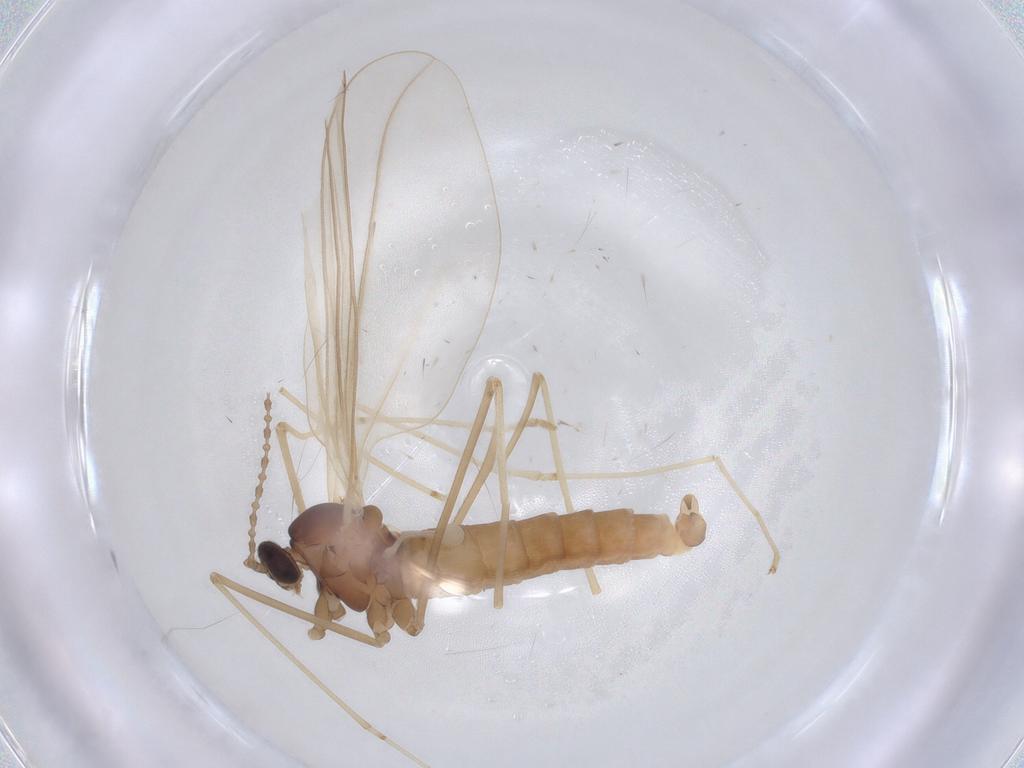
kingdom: Animalia
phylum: Arthropoda
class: Insecta
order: Diptera
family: Cecidomyiidae
